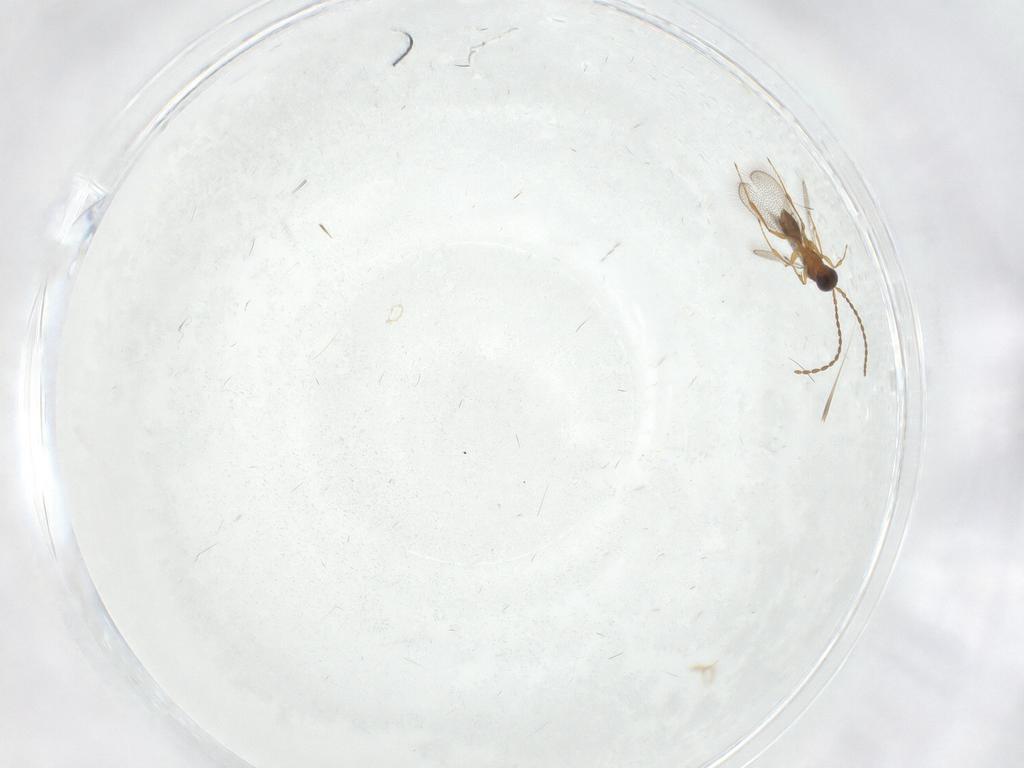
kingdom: Animalia
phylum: Arthropoda
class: Insecta
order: Hymenoptera
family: Figitidae
